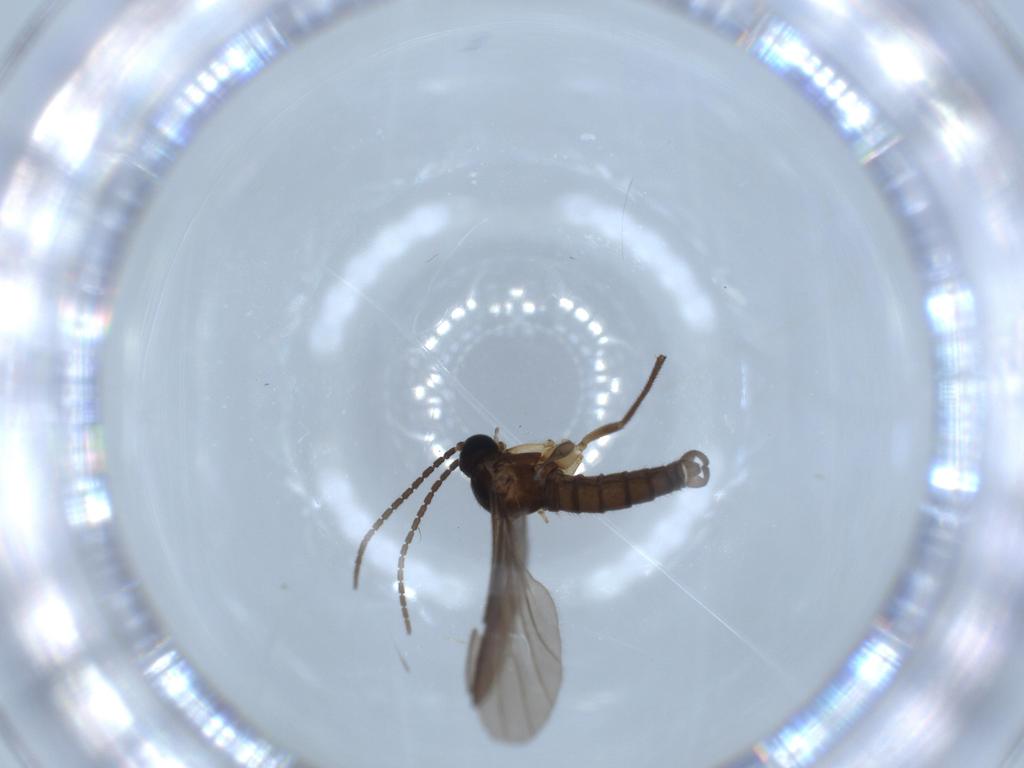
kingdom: Animalia
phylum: Arthropoda
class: Insecta
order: Diptera
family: Sciaridae
